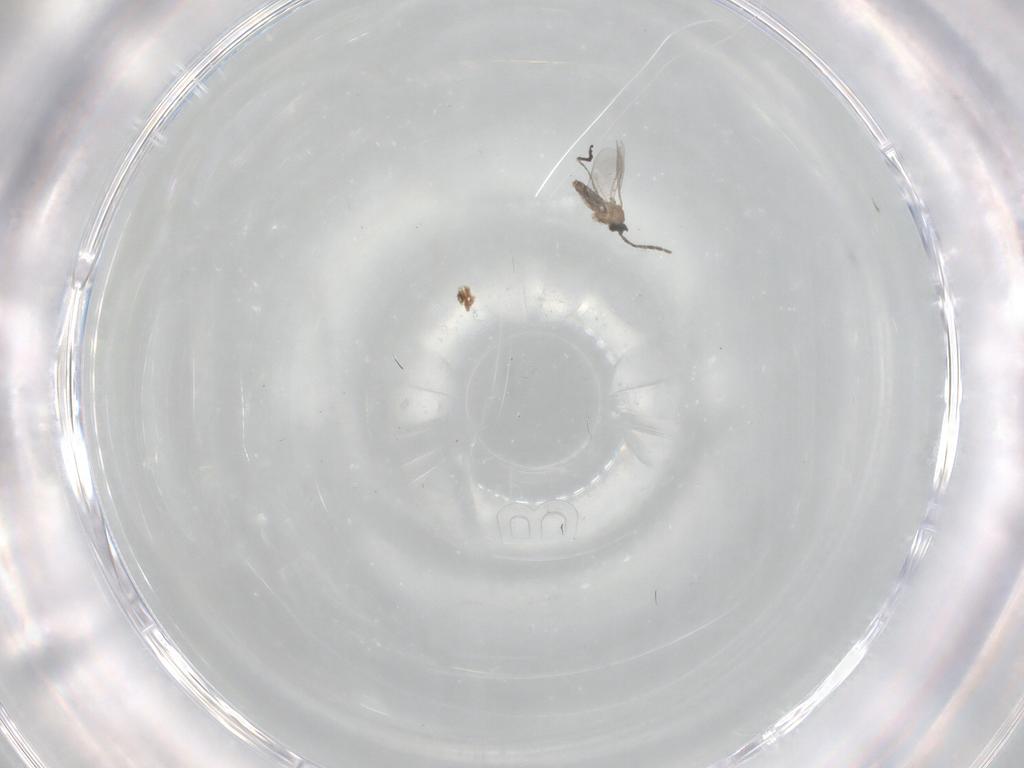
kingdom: Animalia
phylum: Arthropoda
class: Insecta
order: Diptera
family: Cecidomyiidae
